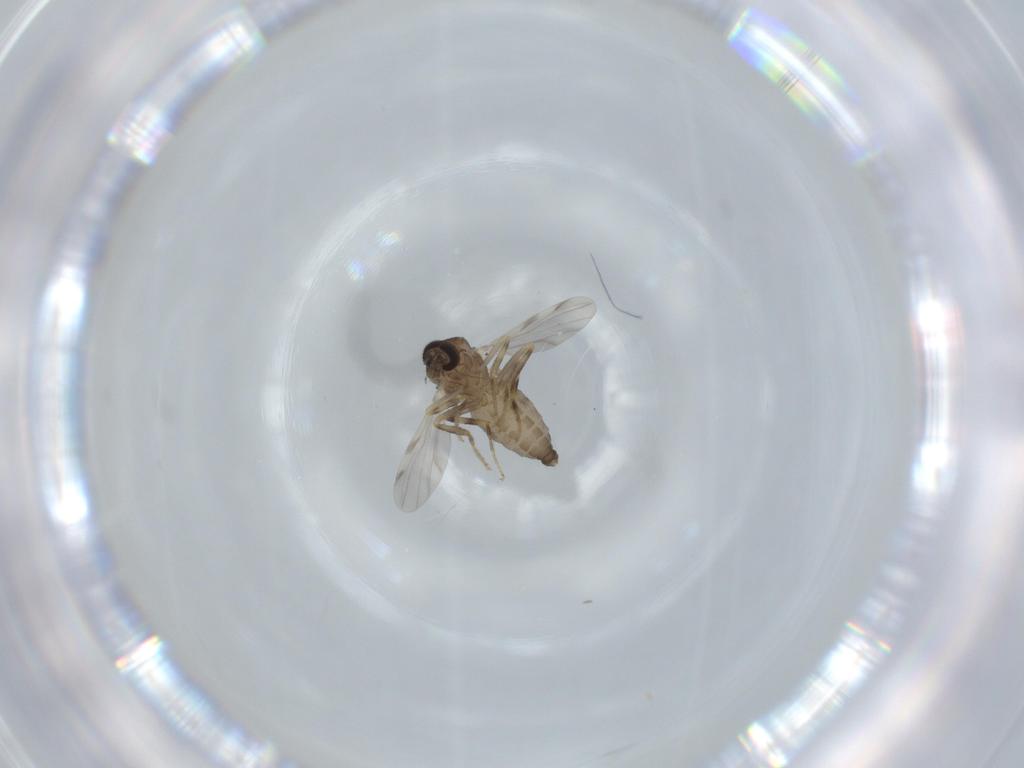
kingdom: Animalia
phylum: Arthropoda
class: Insecta
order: Diptera
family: Ceratopogonidae
